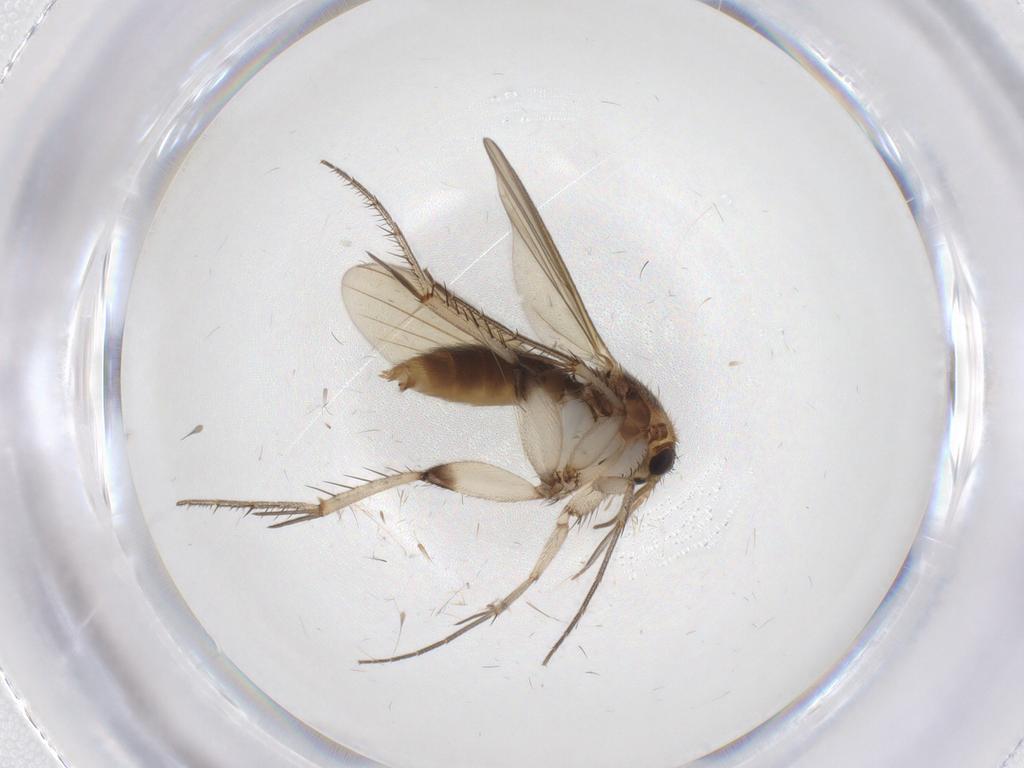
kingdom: Animalia
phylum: Arthropoda
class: Insecta
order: Diptera
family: Mycetophilidae
